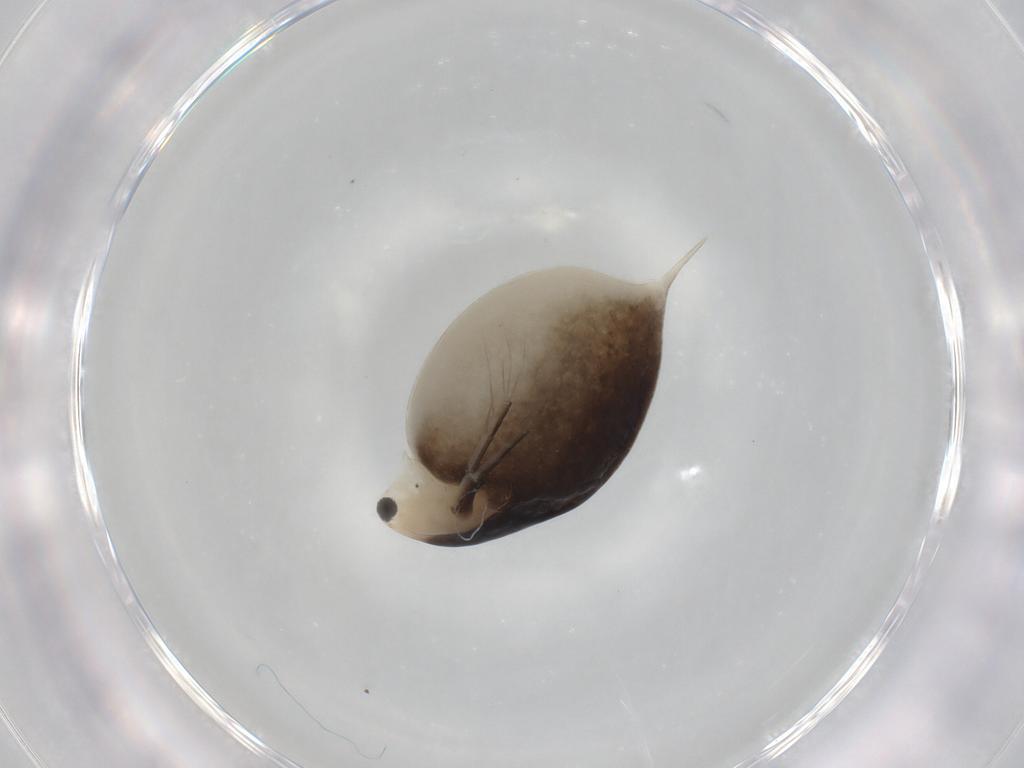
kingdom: Animalia
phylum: Arthropoda
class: Branchiopoda
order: Diplostraca
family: Daphniidae
